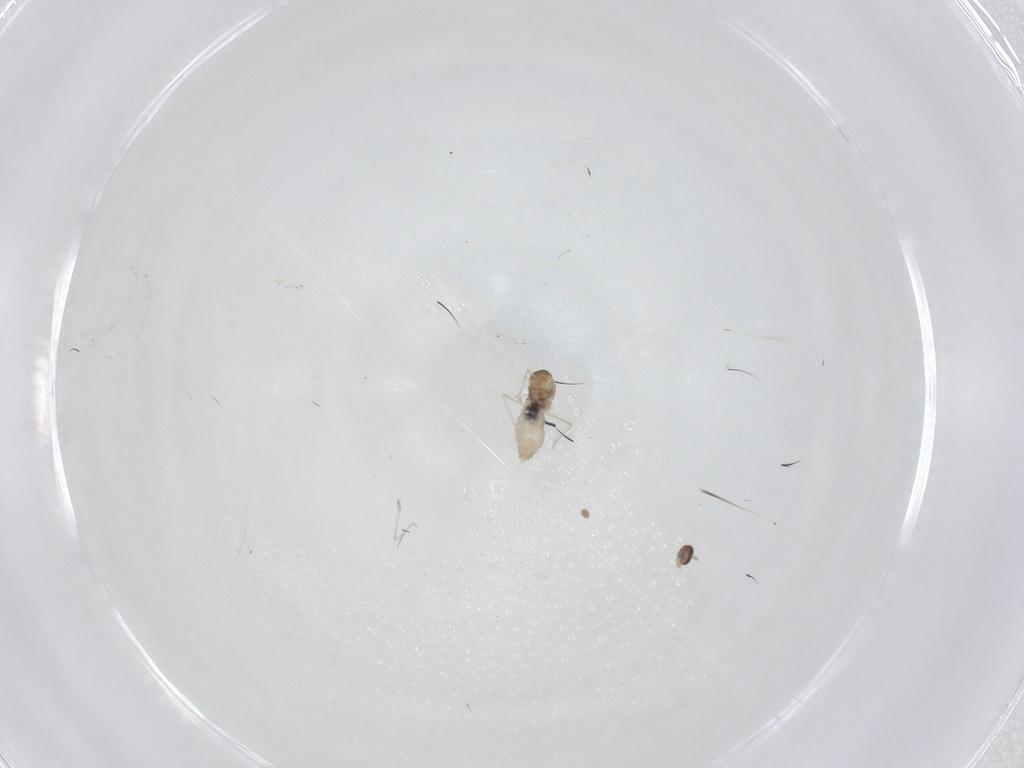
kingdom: Animalia
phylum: Arthropoda
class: Insecta
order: Diptera
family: Cecidomyiidae
